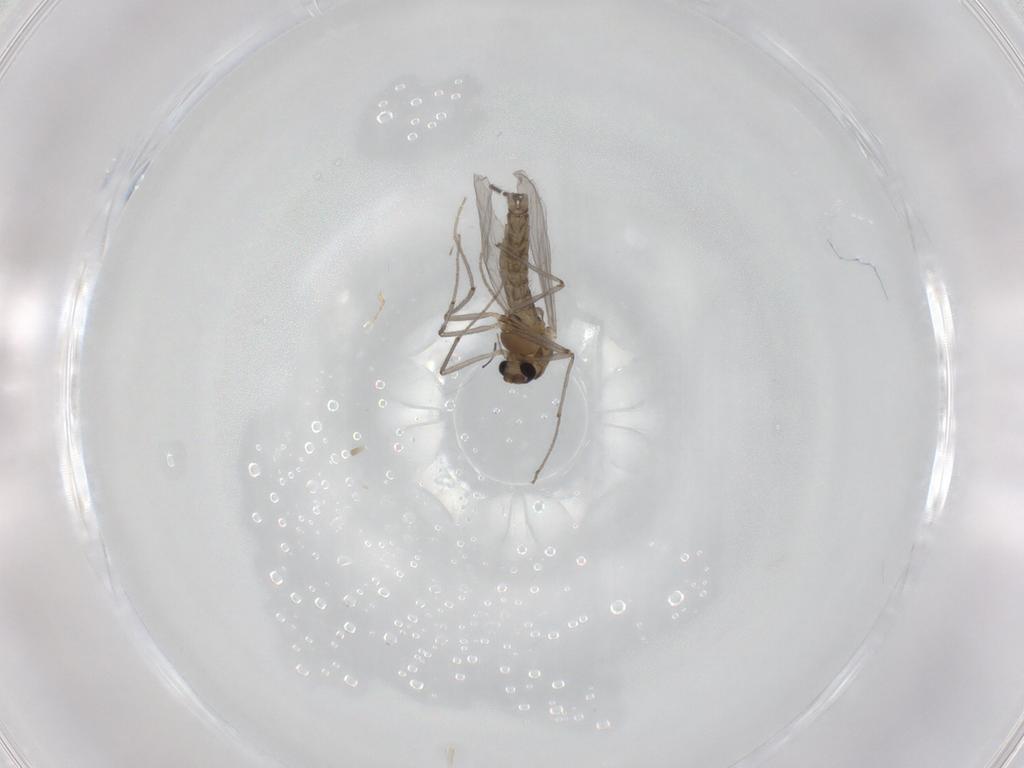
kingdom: Animalia
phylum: Arthropoda
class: Insecta
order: Diptera
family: Chironomidae
